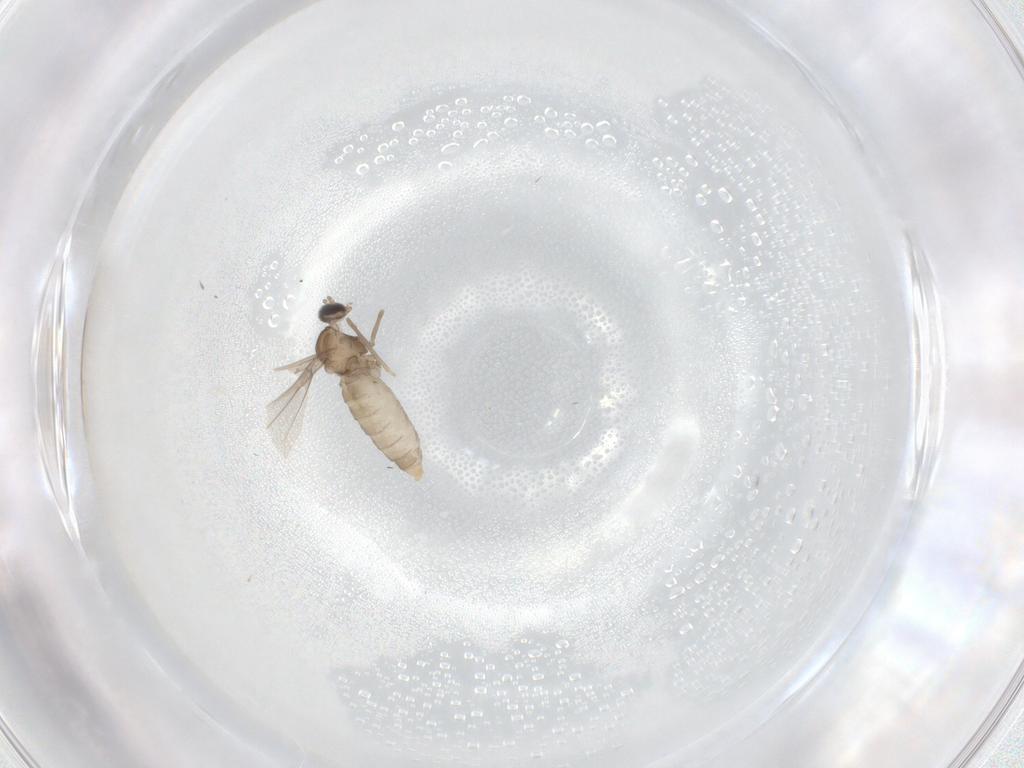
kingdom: Animalia
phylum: Arthropoda
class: Insecta
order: Diptera
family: Cecidomyiidae
